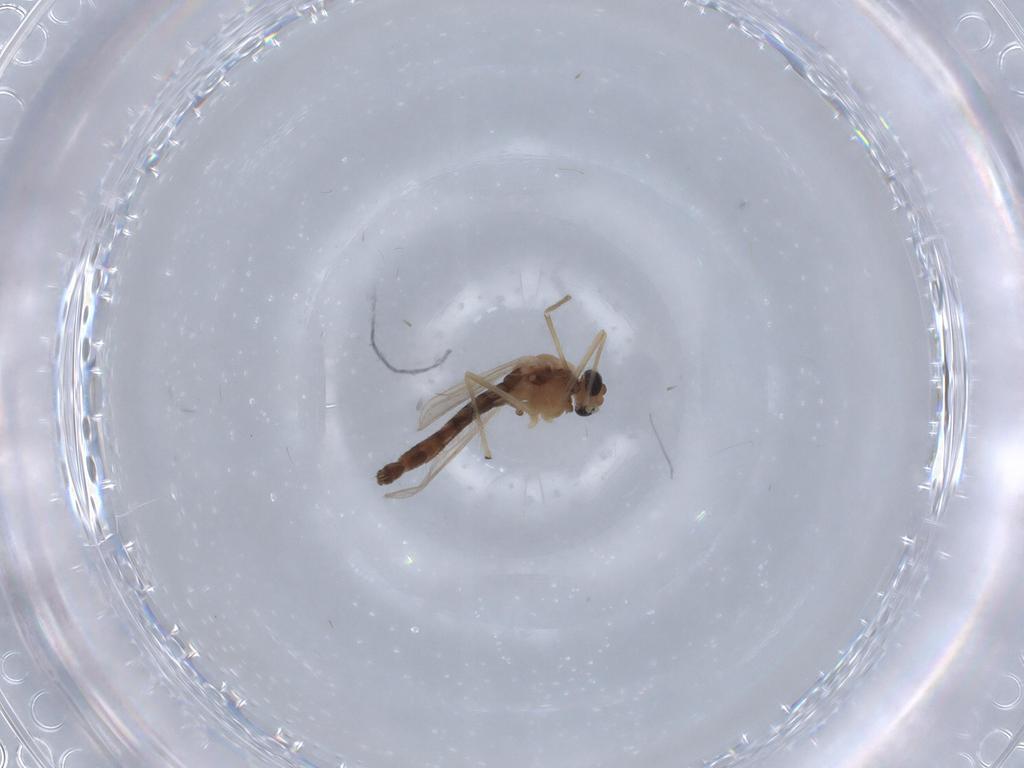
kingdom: Animalia
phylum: Arthropoda
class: Insecta
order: Diptera
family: Chironomidae
